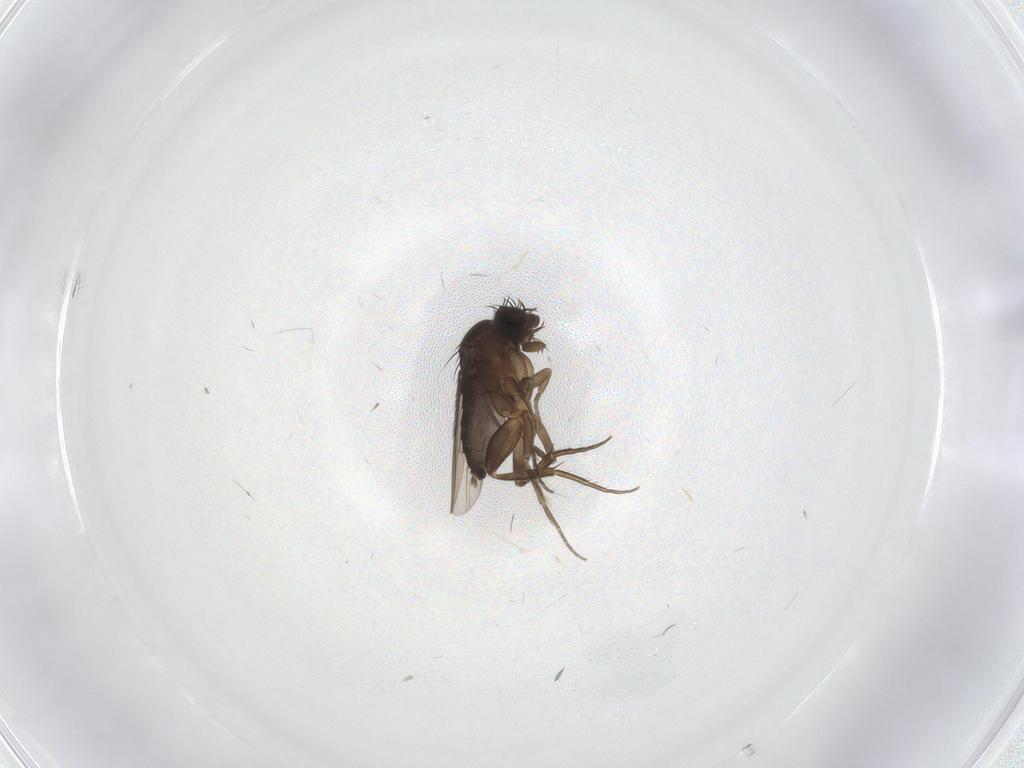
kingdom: Animalia
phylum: Arthropoda
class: Insecta
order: Diptera
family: Phoridae
